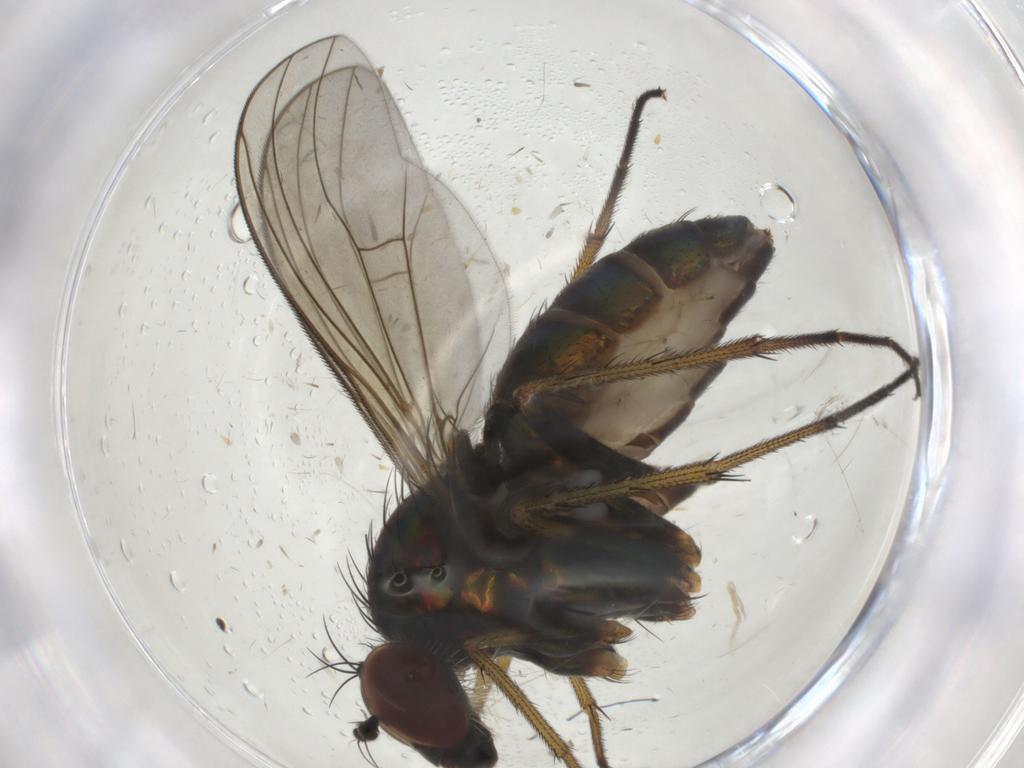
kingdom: Animalia
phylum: Arthropoda
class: Insecta
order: Diptera
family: Dolichopodidae
